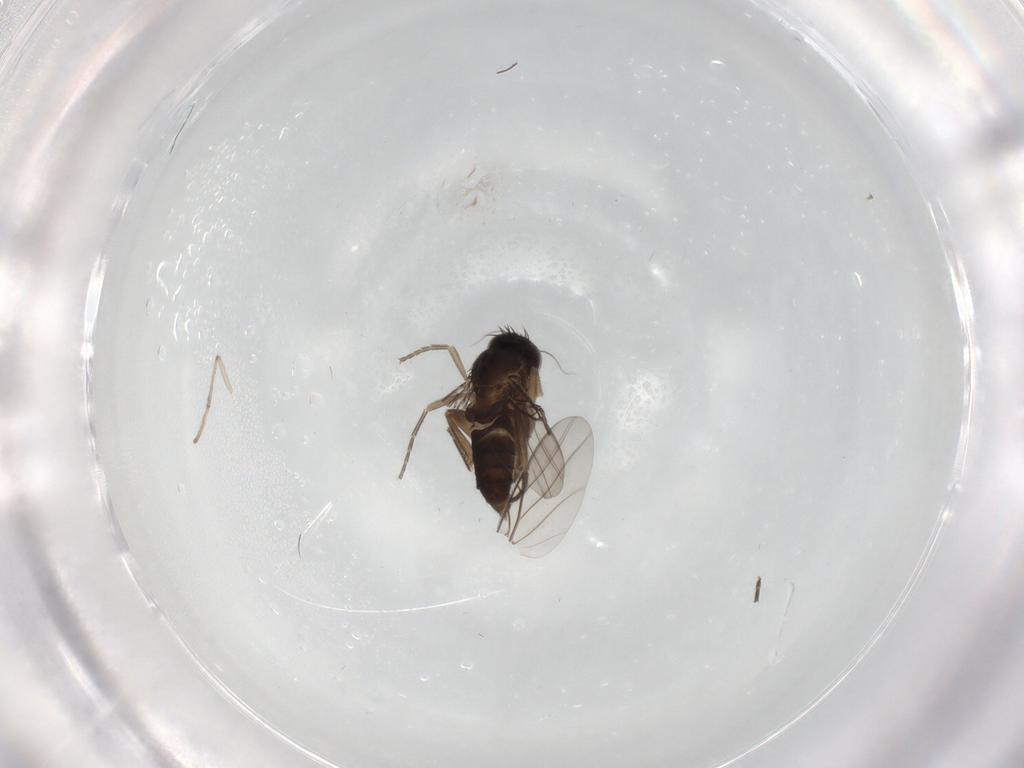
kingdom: Animalia
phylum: Arthropoda
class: Insecta
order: Diptera
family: Phoridae
